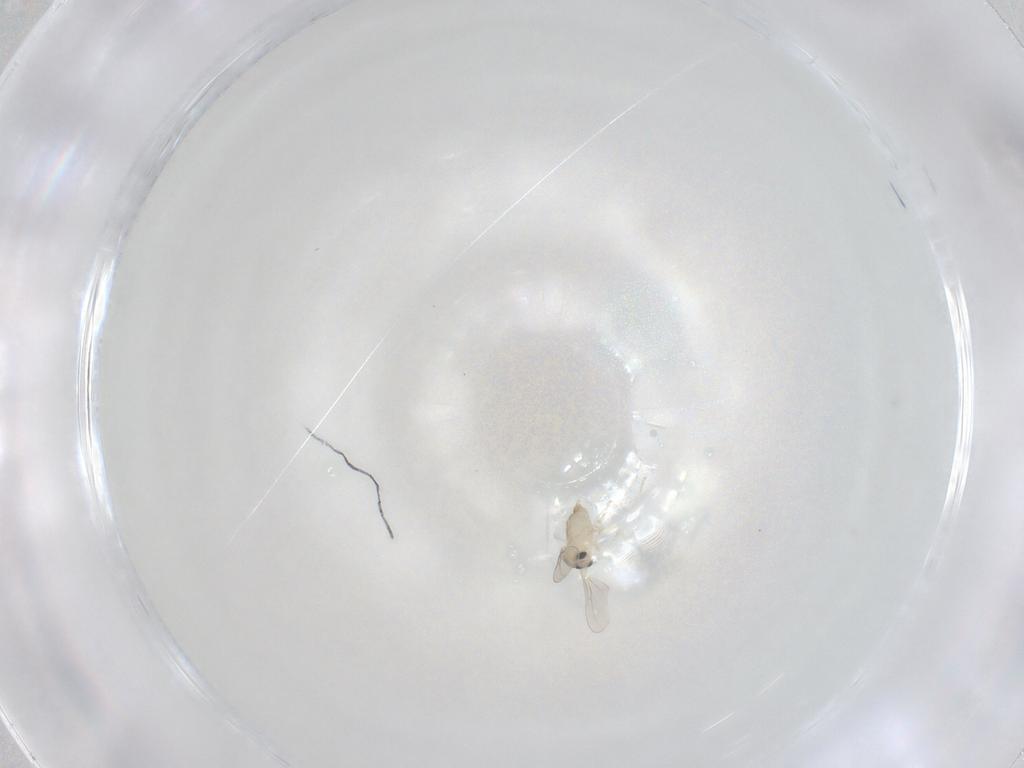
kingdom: Animalia
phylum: Arthropoda
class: Insecta
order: Diptera
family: Cecidomyiidae
